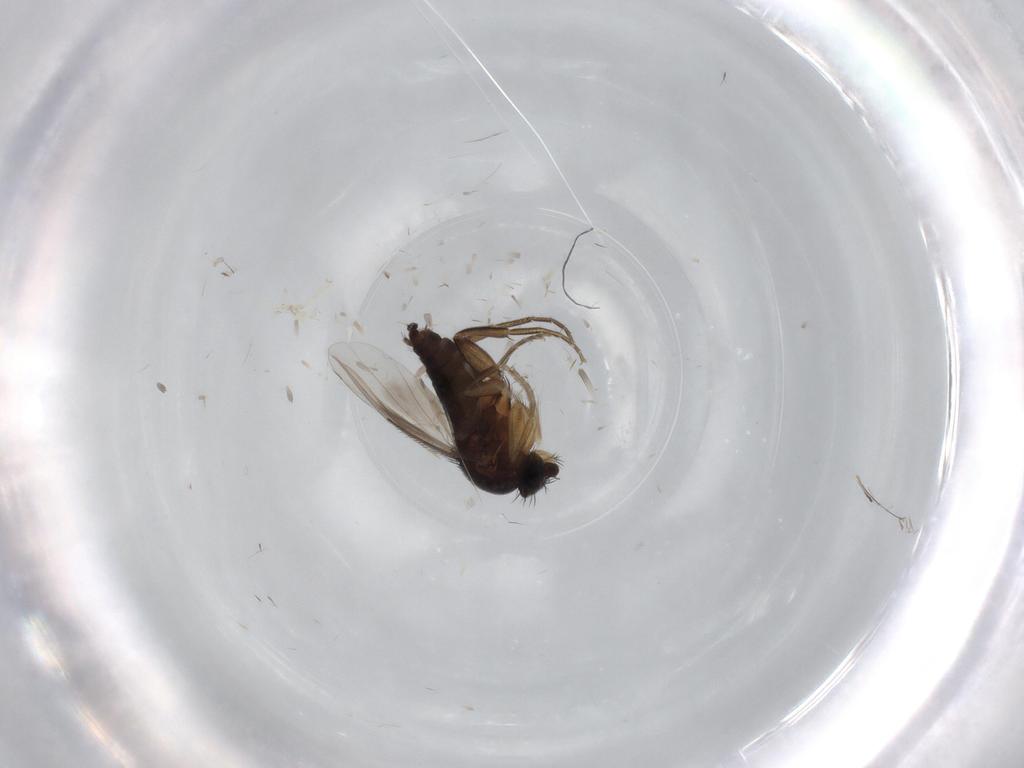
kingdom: Animalia
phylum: Arthropoda
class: Insecta
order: Diptera
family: Phoridae
